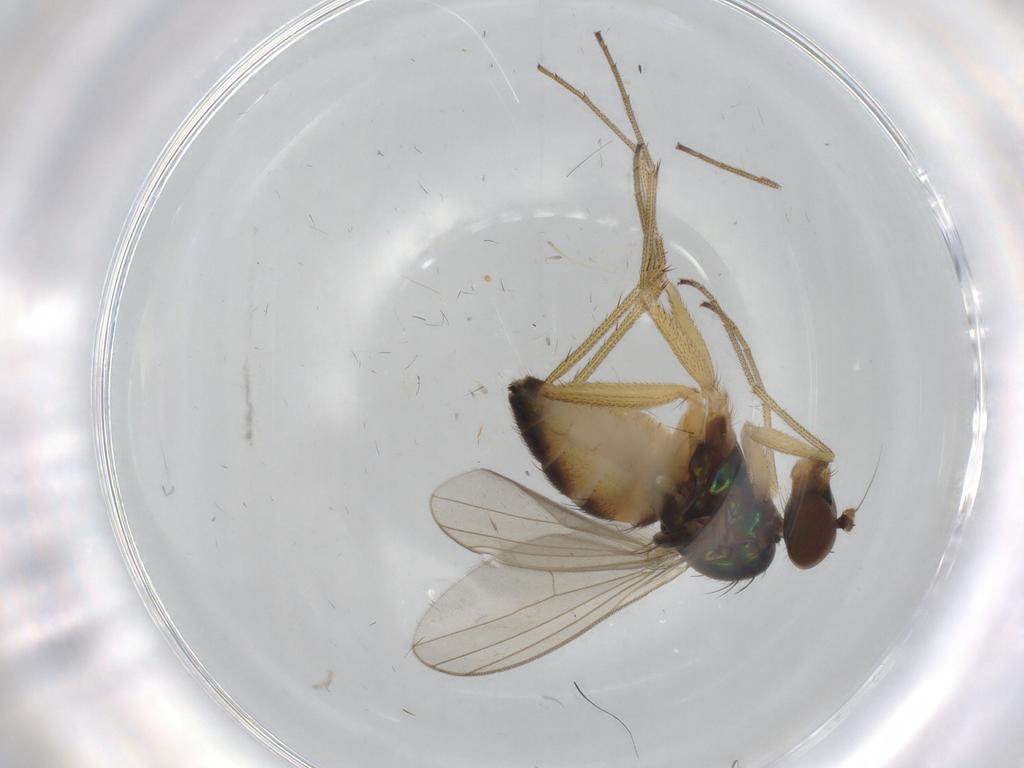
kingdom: Animalia
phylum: Arthropoda
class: Insecta
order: Diptera
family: Dolichopodidae
